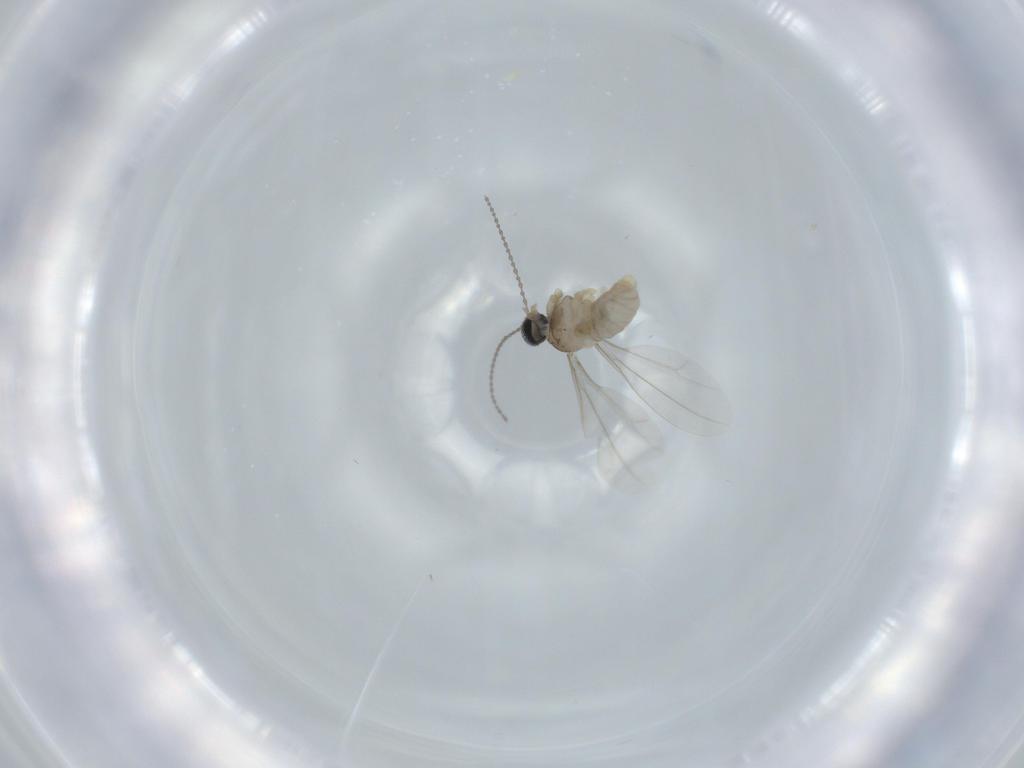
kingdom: Animalia
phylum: Arthropoda
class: Insecta
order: Diptera
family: Cecidomyiidae
